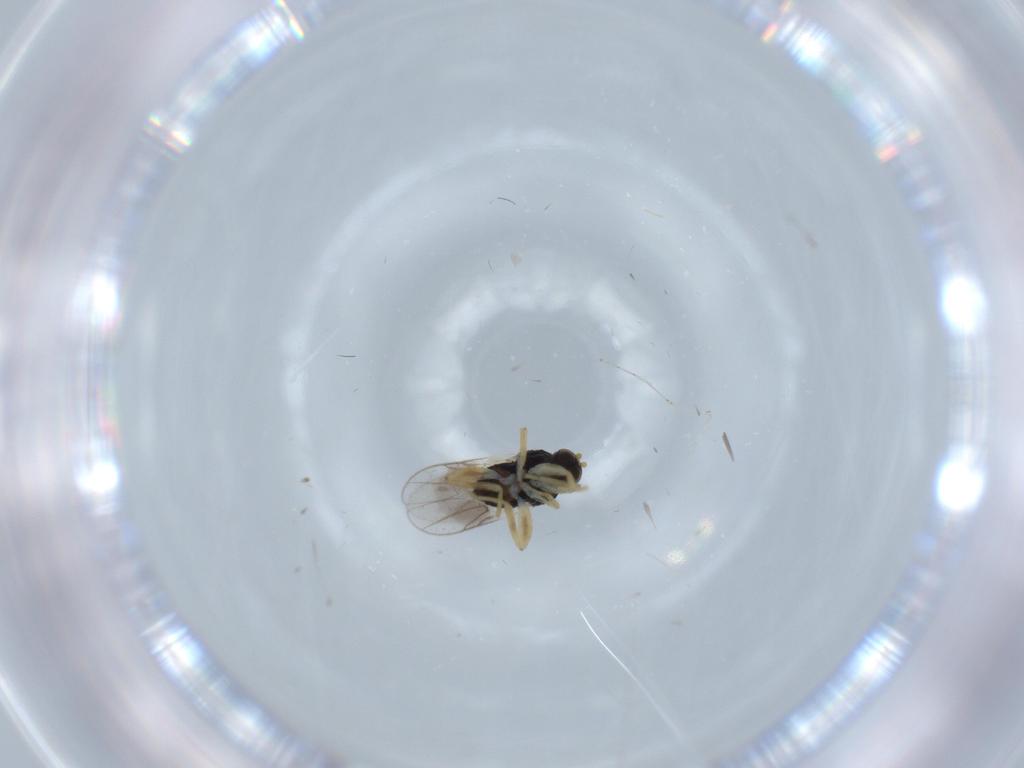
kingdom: Animalia
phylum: Arthropoda
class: Insecta
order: Diptera
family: Hybotidae
